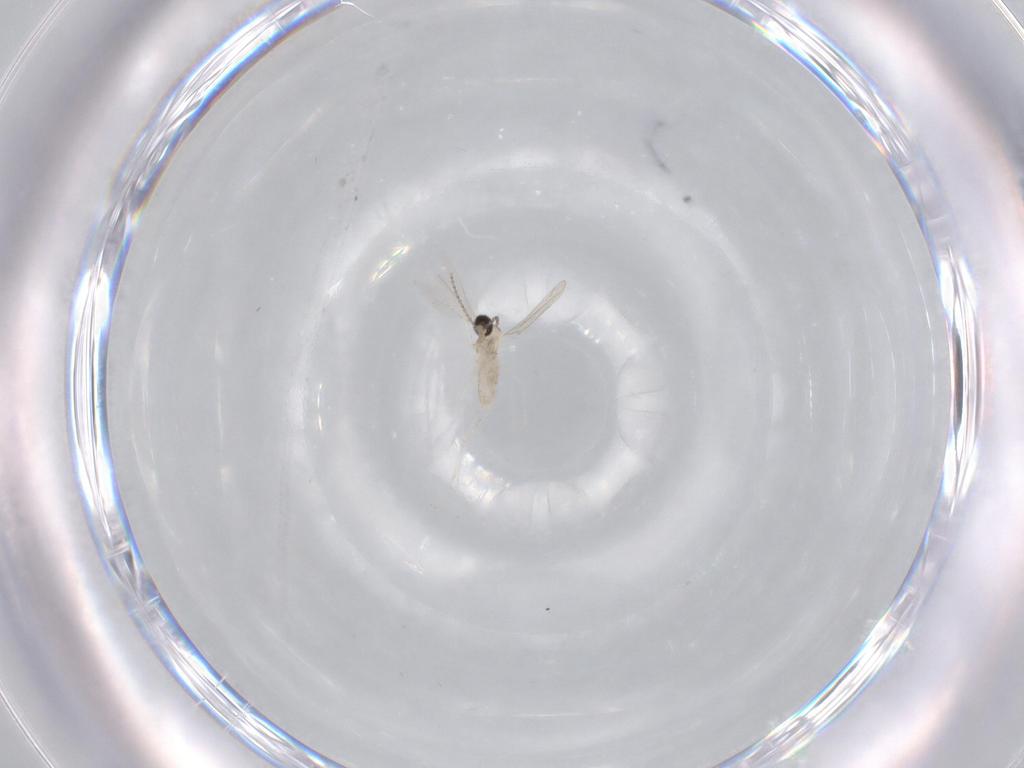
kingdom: Animalia
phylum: Arthropoda
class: Insecta
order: Diptera
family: Cecidomyiidae
